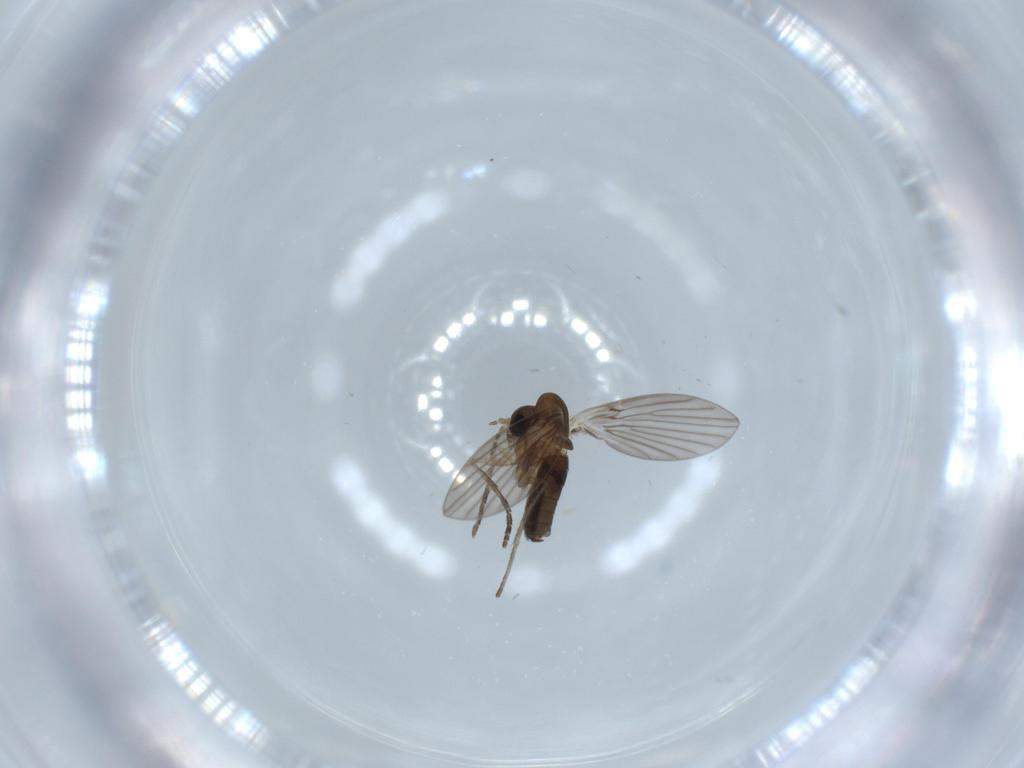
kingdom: Animalia
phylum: Arthropoda
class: Insecta
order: Diptera
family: Psychodidae
